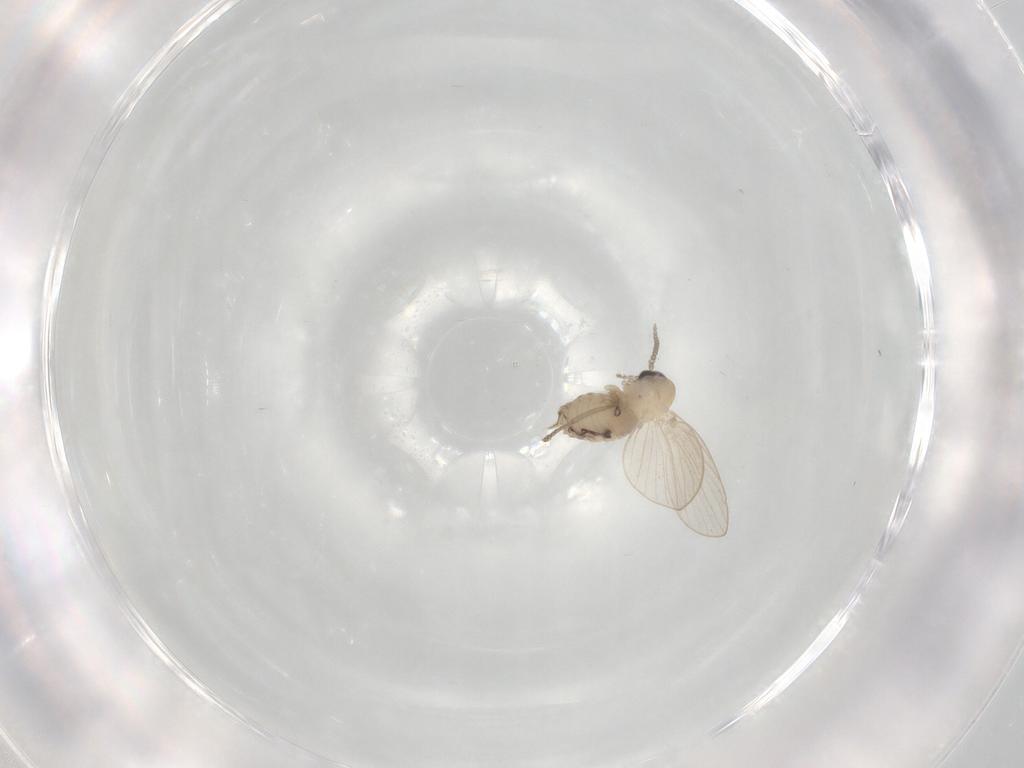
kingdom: Animalia
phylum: Arthropoda
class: Insecta
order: Diptera
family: Psychodidae
